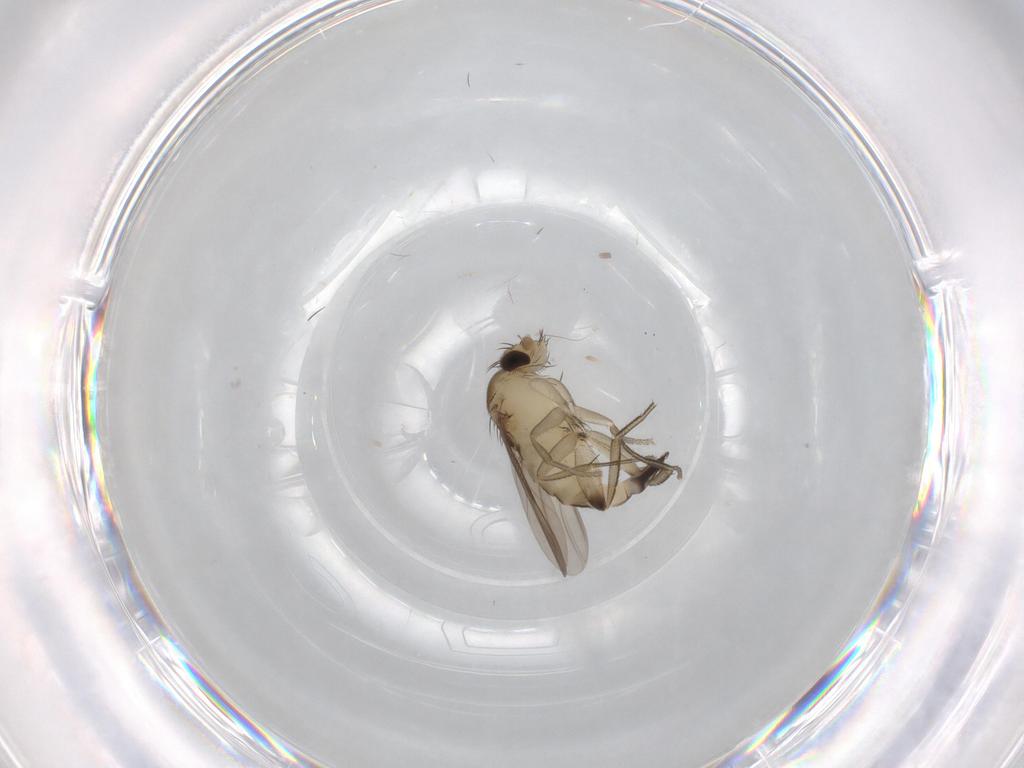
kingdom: Animalia
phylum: Arthropoda
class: Insecta
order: Diptera
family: Phoridae
